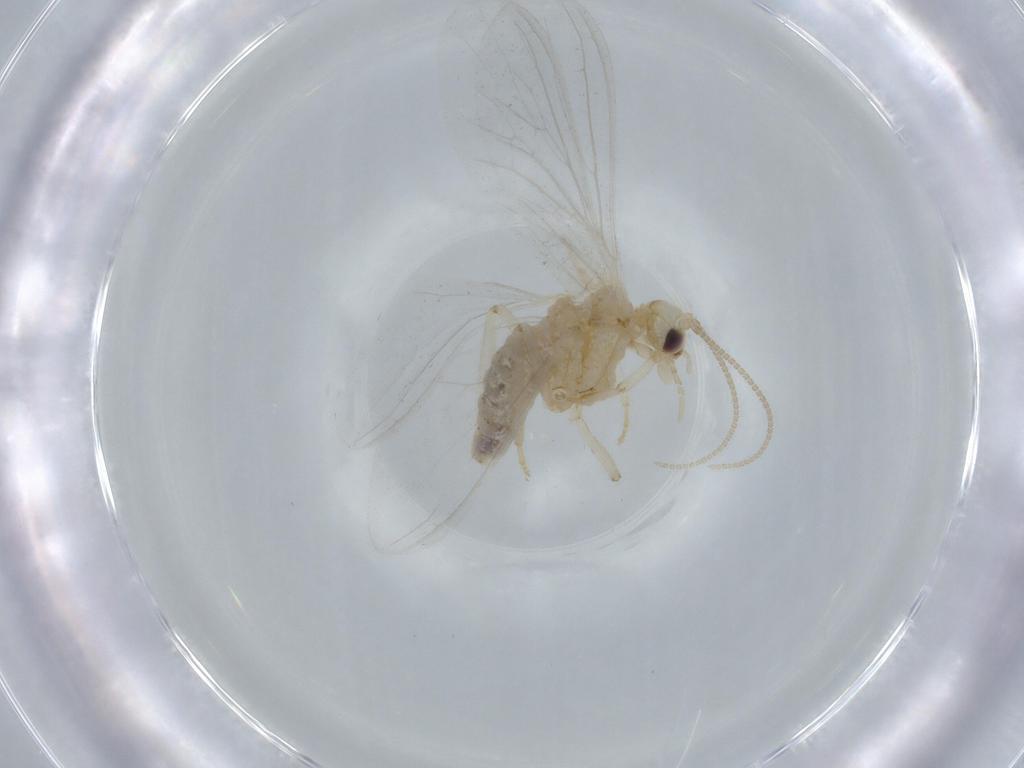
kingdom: Animalia
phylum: Arthropoda
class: Insecta
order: Neuroptera
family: Coniopterygidae
